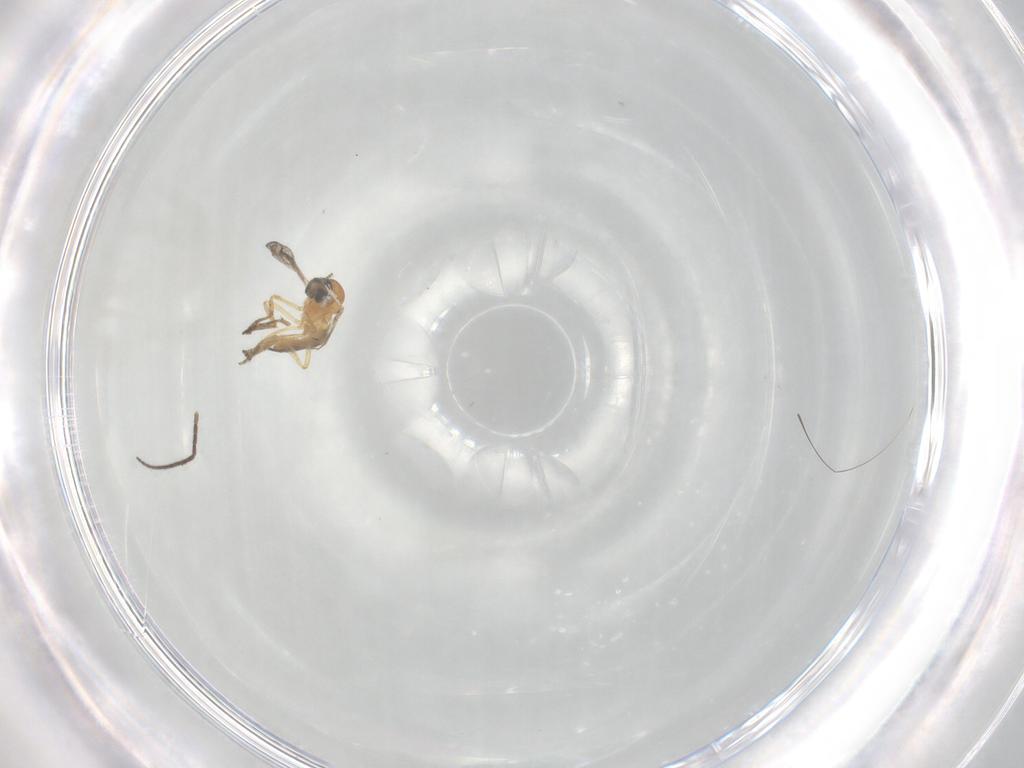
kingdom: Animalia
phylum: Arthropoda
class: Insecta
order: Diptera
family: Ceratopogonidae
